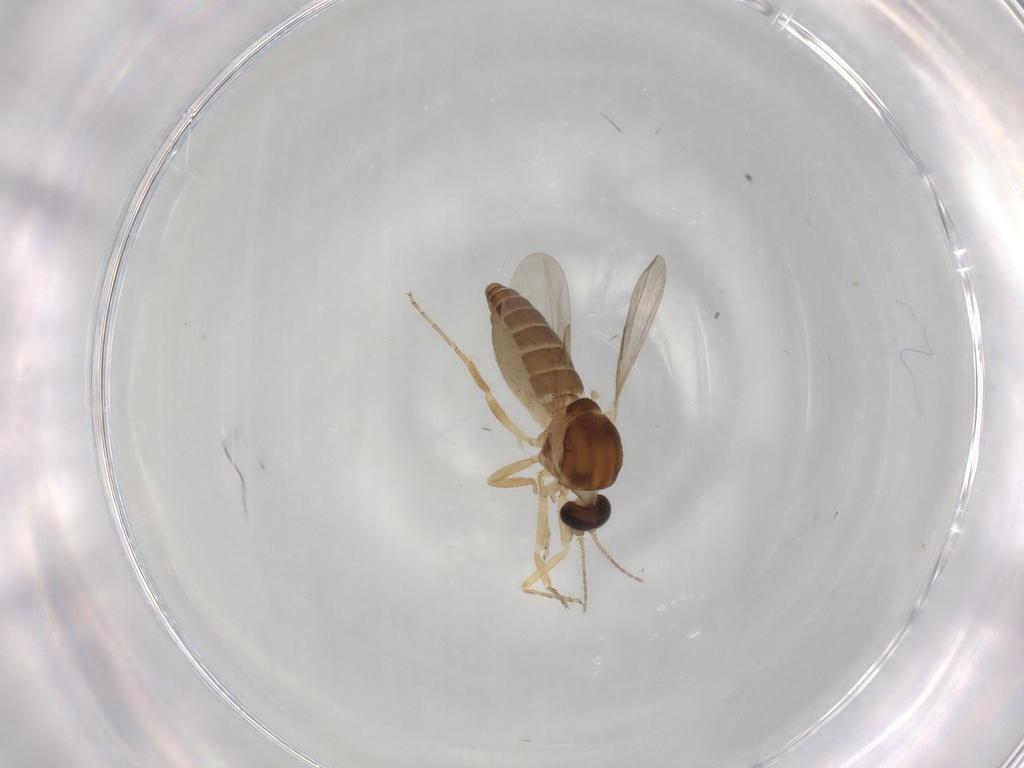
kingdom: Animalia
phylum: Arthropoda
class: Insecta
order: Diptera
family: Ceratopogonidae
